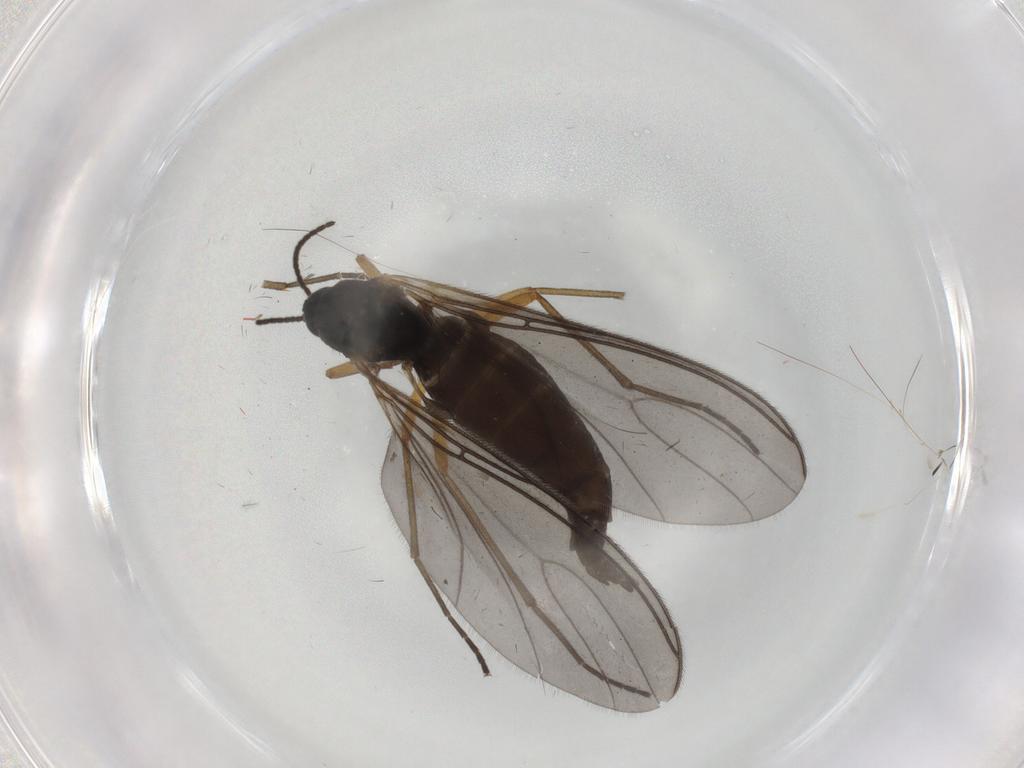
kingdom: Animalia
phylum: Arthropoda
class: Insecta
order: Diptera
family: Sciaridae
